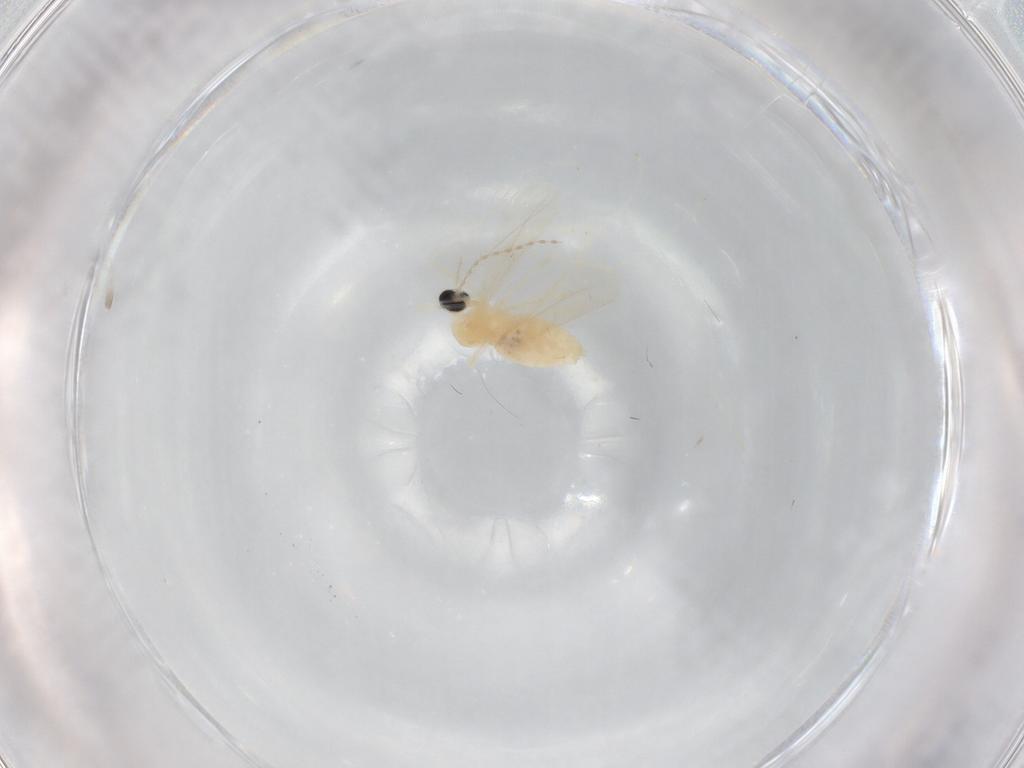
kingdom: Animalia
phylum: Arthropoda
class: Insecta
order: Diptera
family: Cecidomyiidae
